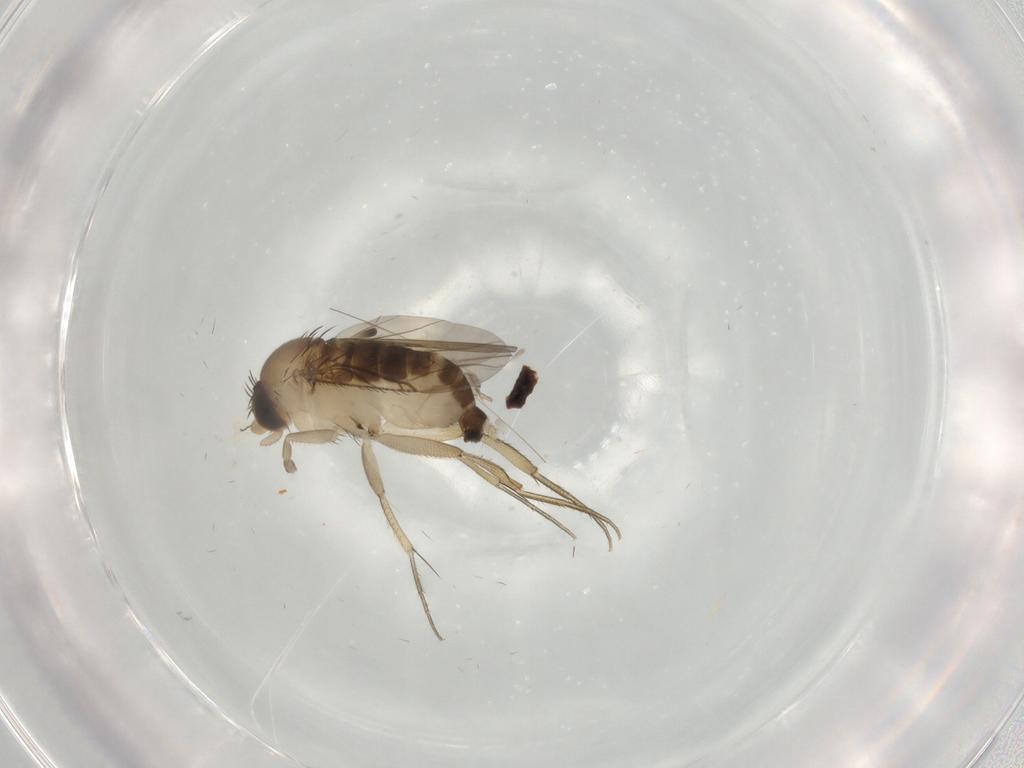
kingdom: Animalia
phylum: Arthropoda
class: Insecta
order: Diptera
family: Phoridae
